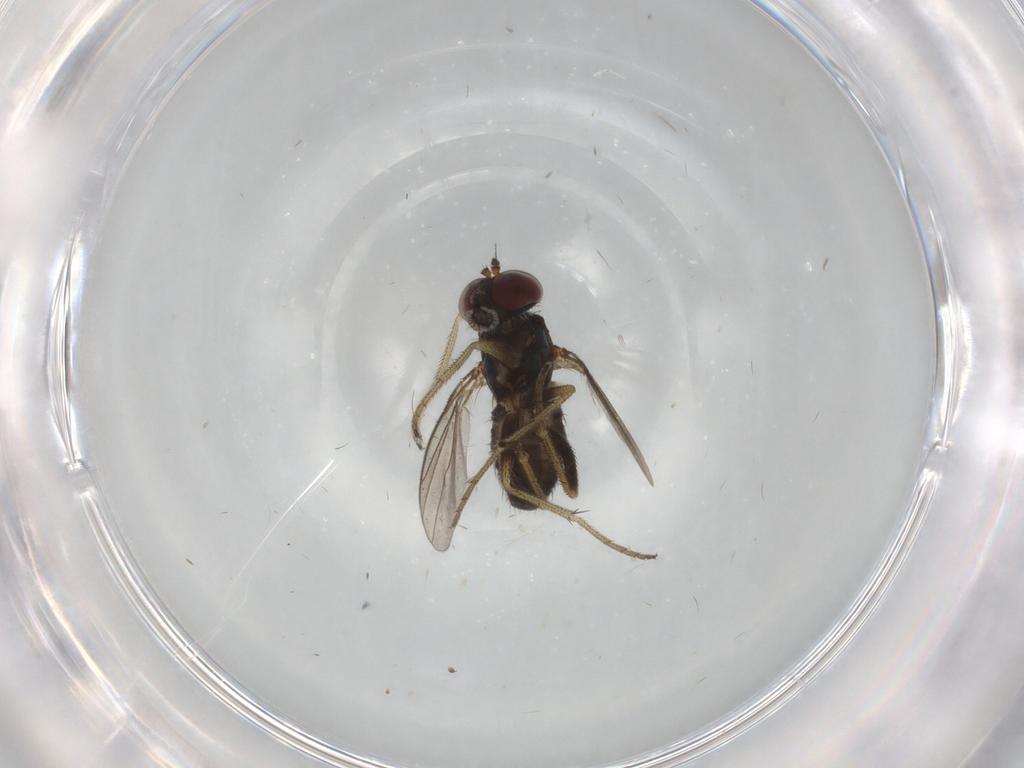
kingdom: Animalia
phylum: Arthropoda
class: Insecta
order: Diptera
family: Dolichopodidae
